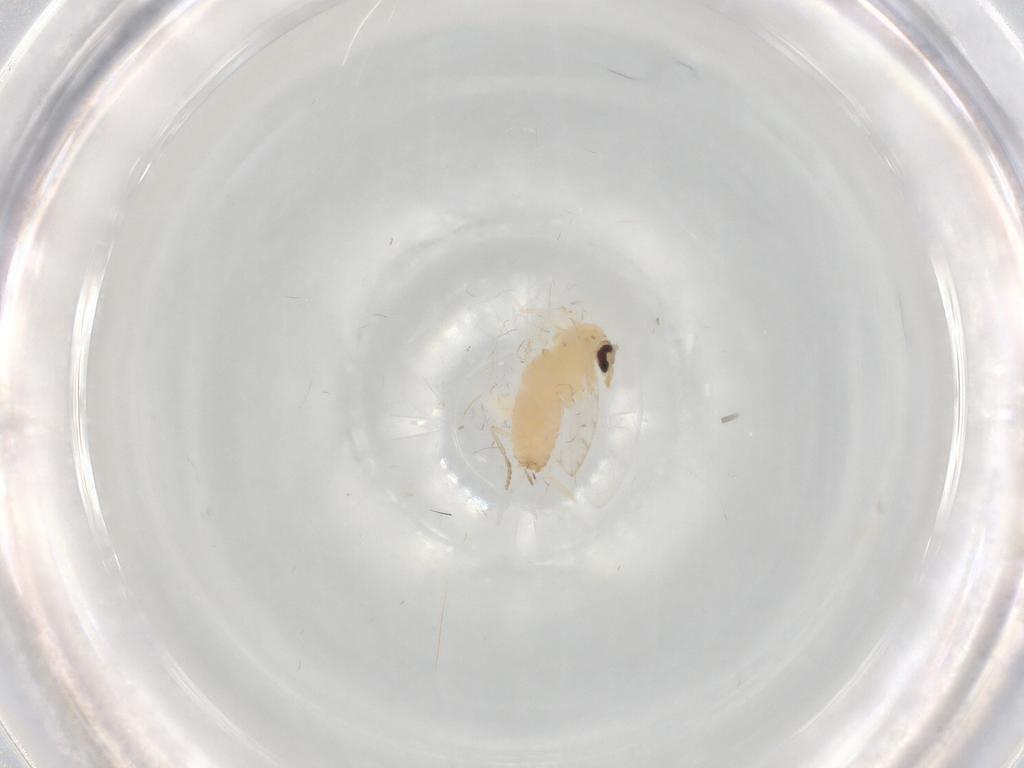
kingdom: Animalia
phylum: Arthropoda
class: Insecta
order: Diptera
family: Psychodidae
